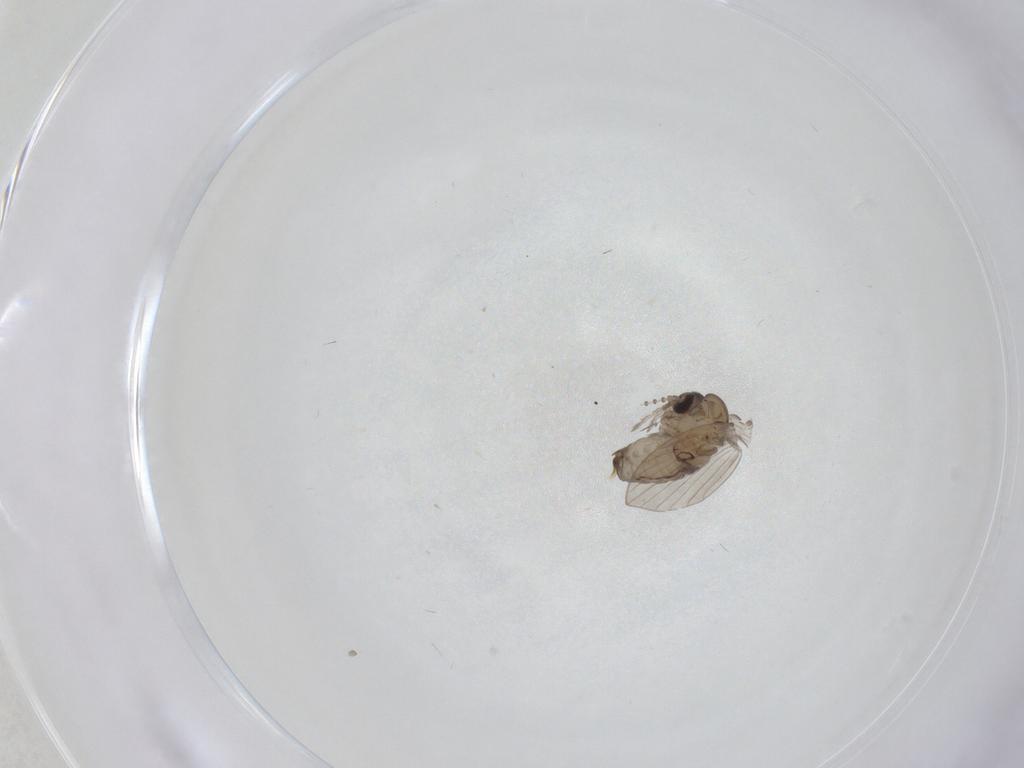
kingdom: Animalia
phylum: Arthropoda
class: Insecta
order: Diptera
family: Psychodidae
